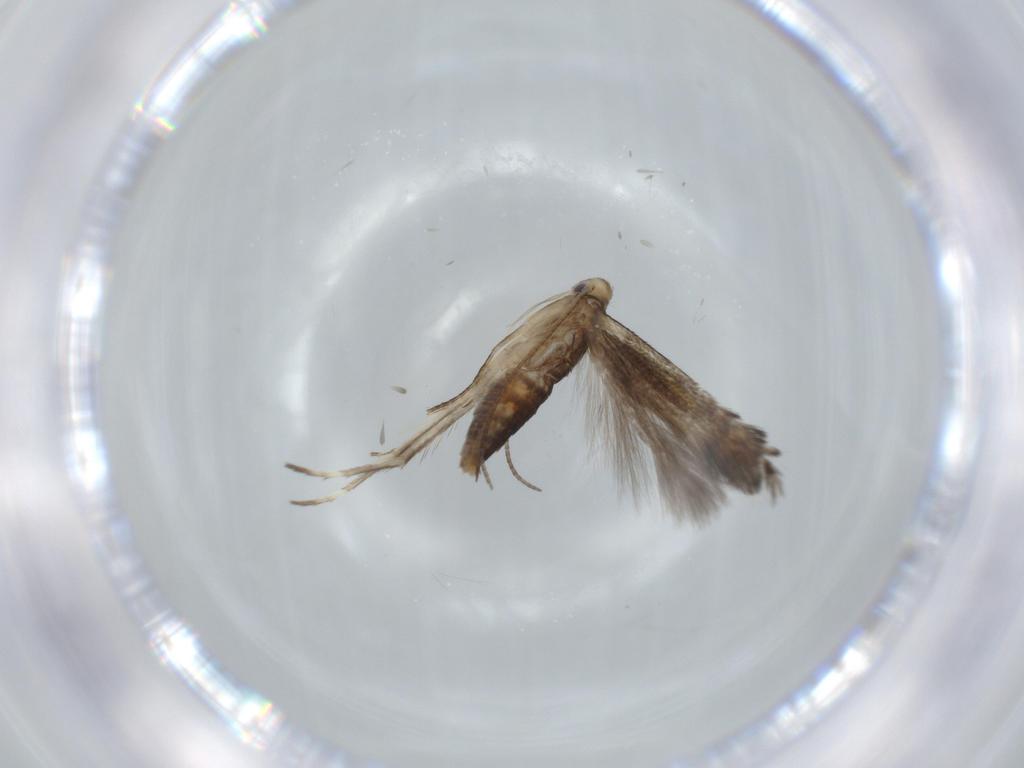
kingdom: Animalia
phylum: Arthropoda
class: Insecta
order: Lepidoptera
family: Nepticulidae
